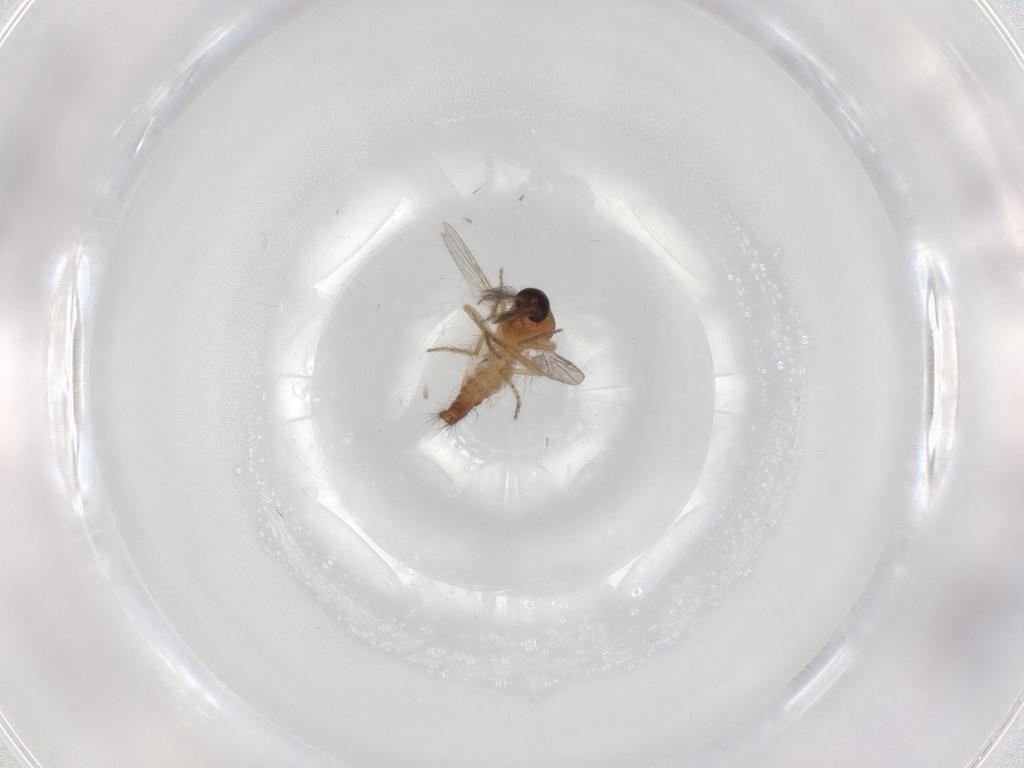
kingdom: Animalia
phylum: Arthropoda
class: Insecta
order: Diptera
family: Ceratopogonidae
